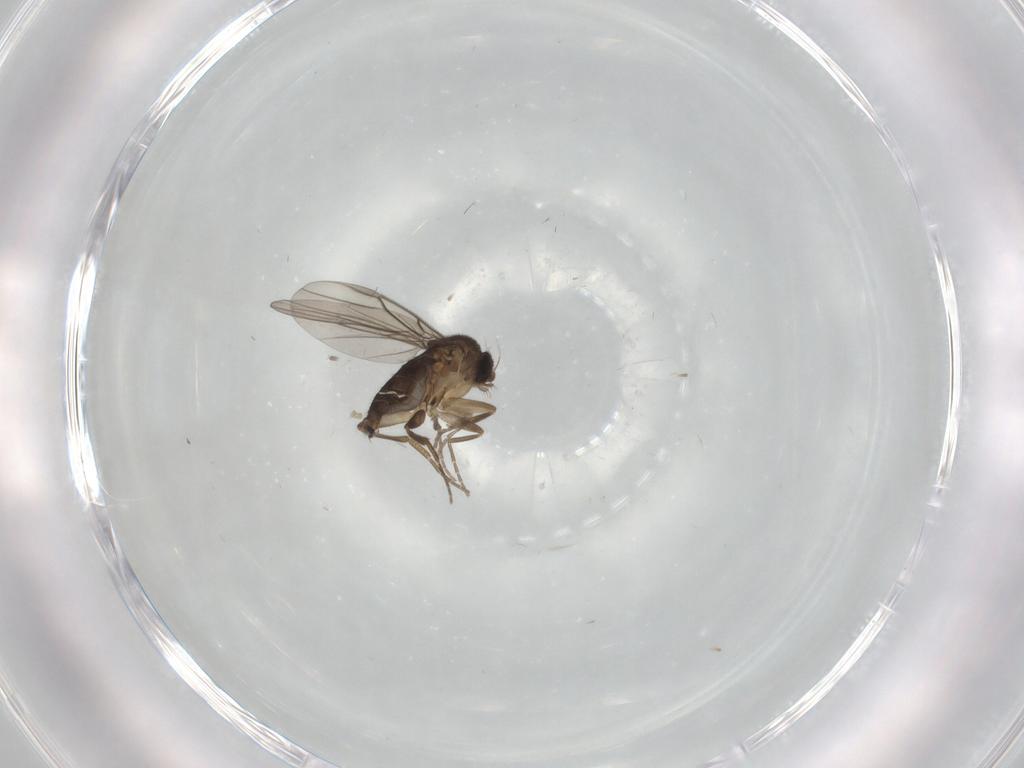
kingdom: Animalia
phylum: Arthropoda
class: Insecta
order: Diptera
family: Phoridae
